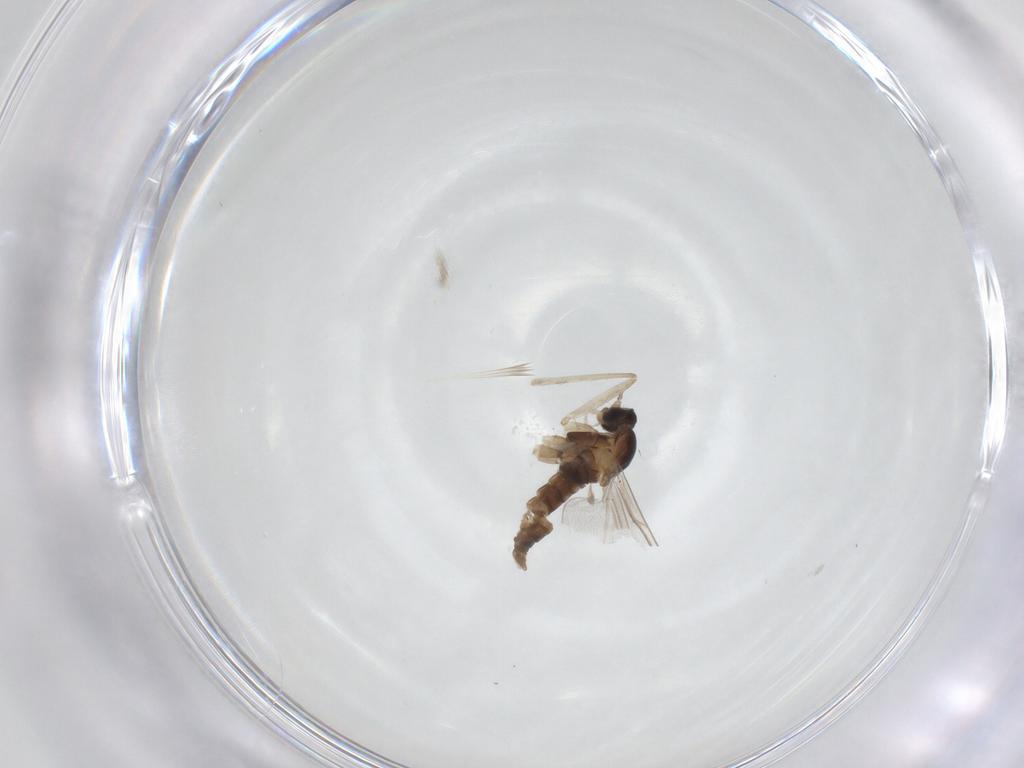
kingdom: Animalia
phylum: Arthropoda
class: Insecta
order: Diptera
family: Cecidomyiidae
